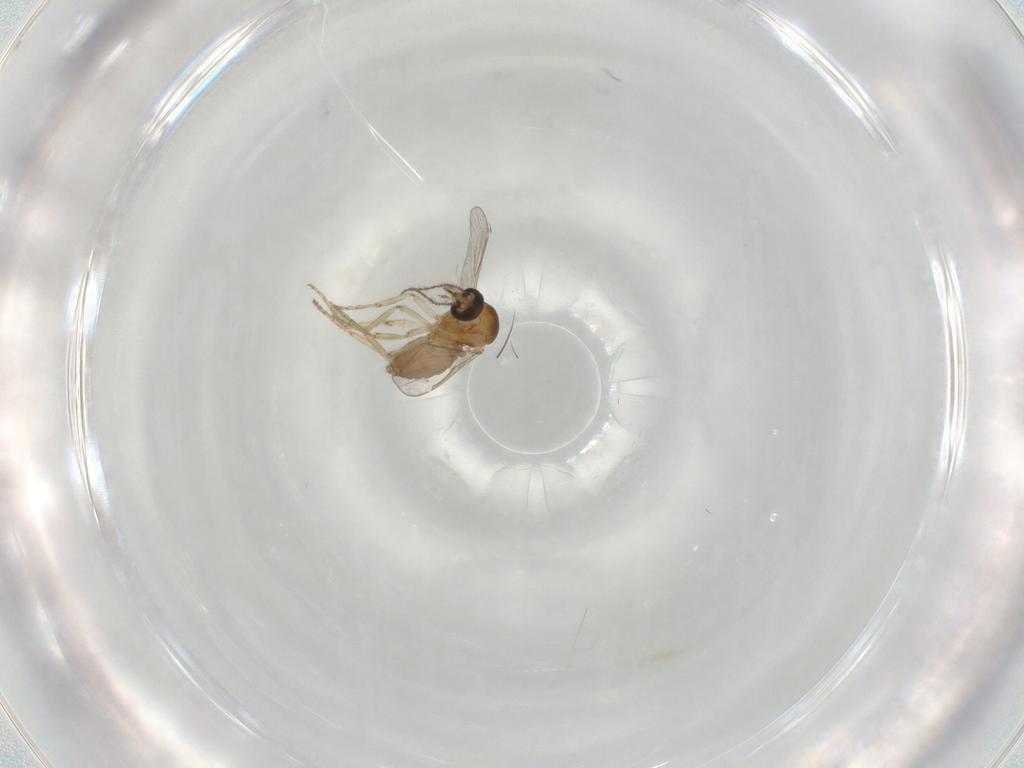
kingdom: Animalia
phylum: Arthropoda
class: Insecta
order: Diptera
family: Ceratopogonidae
